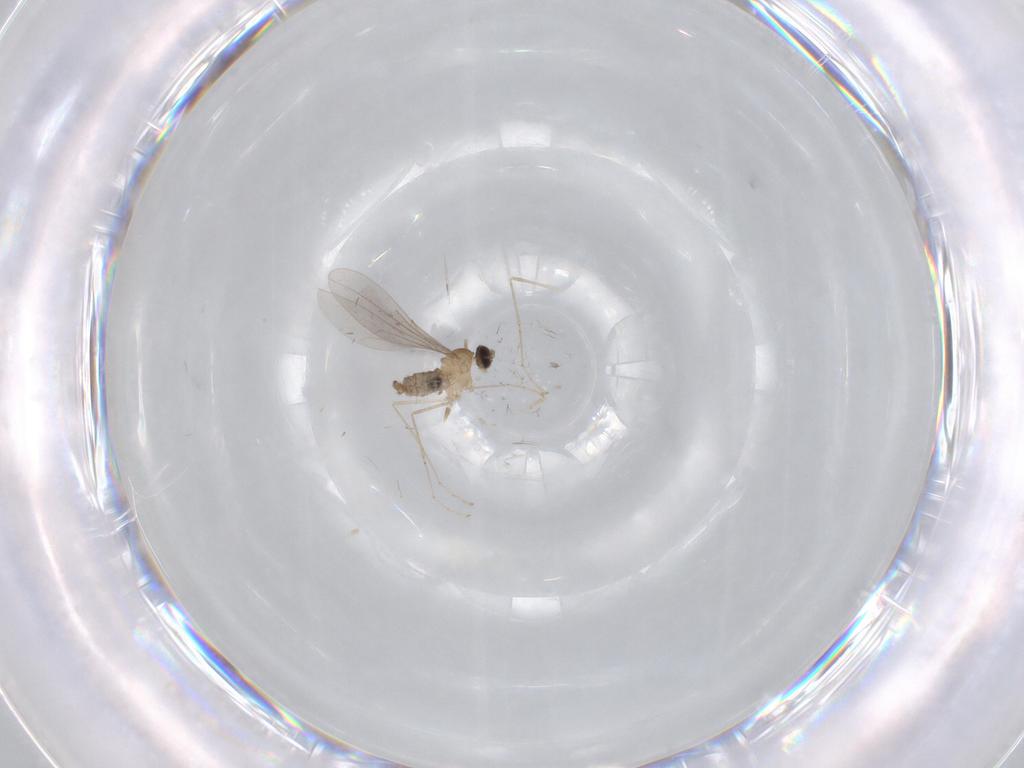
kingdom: Animalia
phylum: Arthropoda
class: Insecta
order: Diptera
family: Cecidomyiidae
